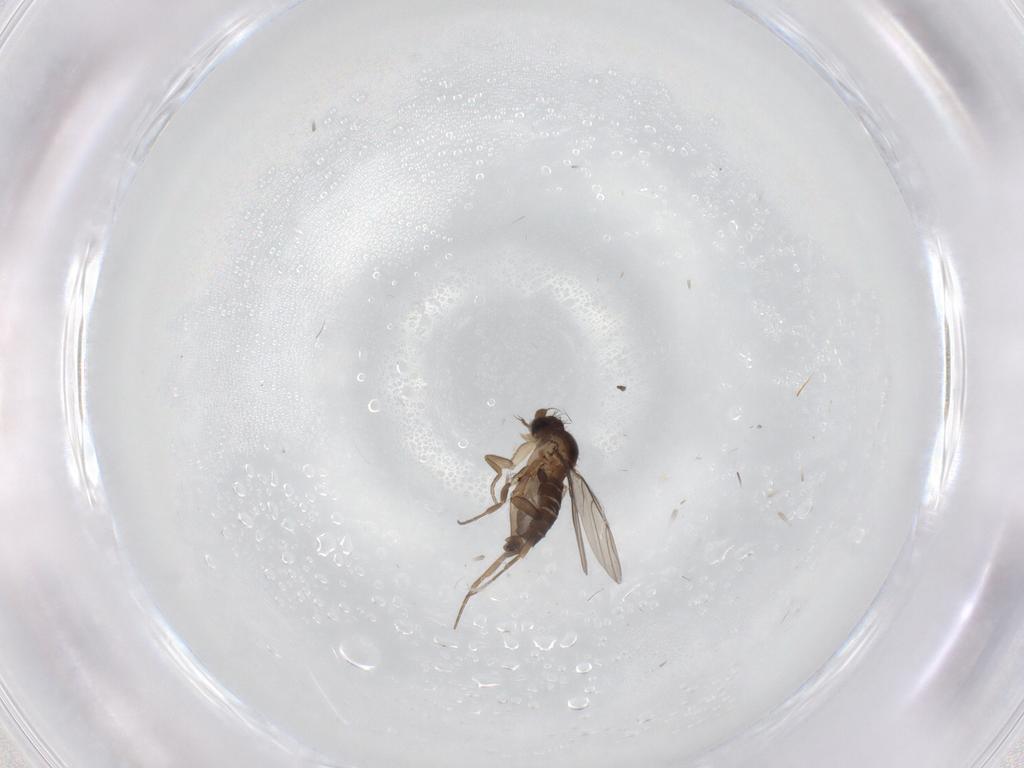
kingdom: Animalia
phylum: Arthropoda
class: Insecta
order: Diptera
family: Phoridae
